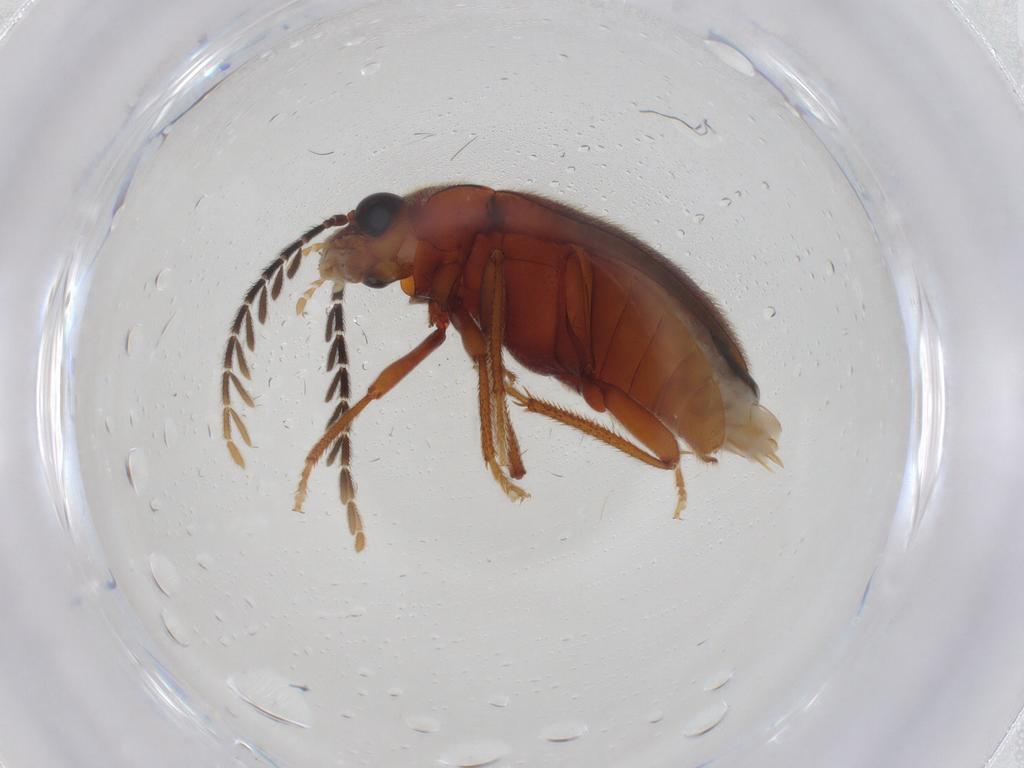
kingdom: Animalia
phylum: Arthropoda
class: Insecta
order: Coleoptera
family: Ptilodactylidae
